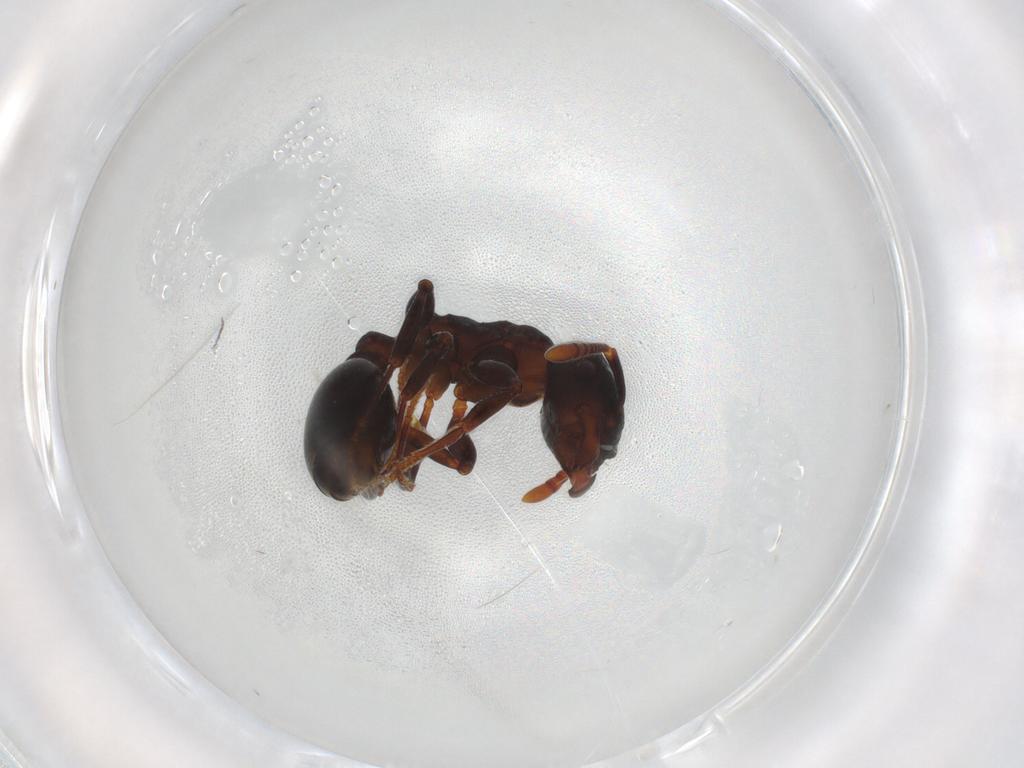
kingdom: Animalia
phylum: Arthropoda
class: Insecta
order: Hymenoptera
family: Formicidae
